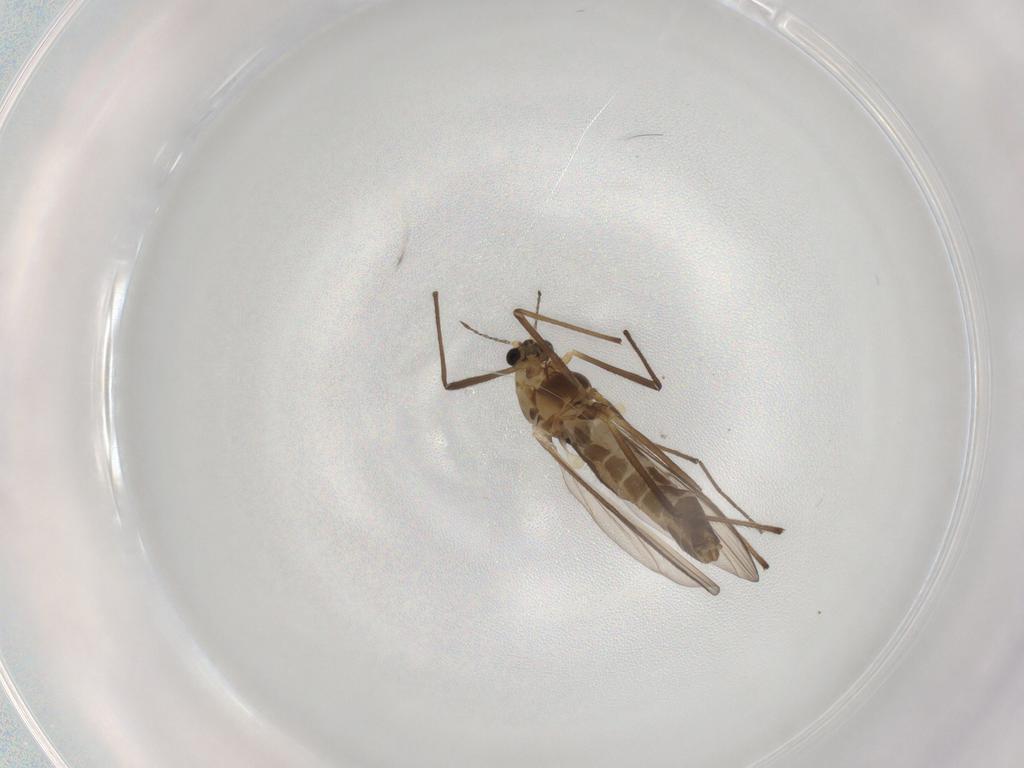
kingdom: Animalia
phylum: Arthropoda
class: Insecta
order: Diptera
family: Chironomidae
